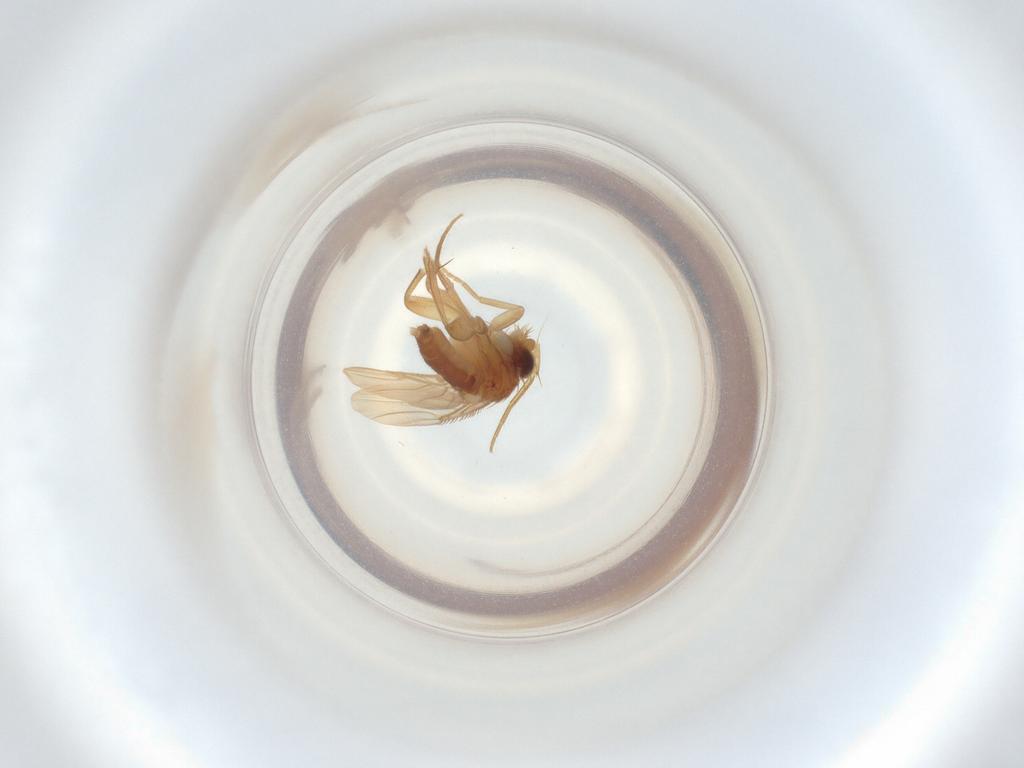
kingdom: Animalia
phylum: Arthropoda
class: Insecta
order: Diptera
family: Phoridae
